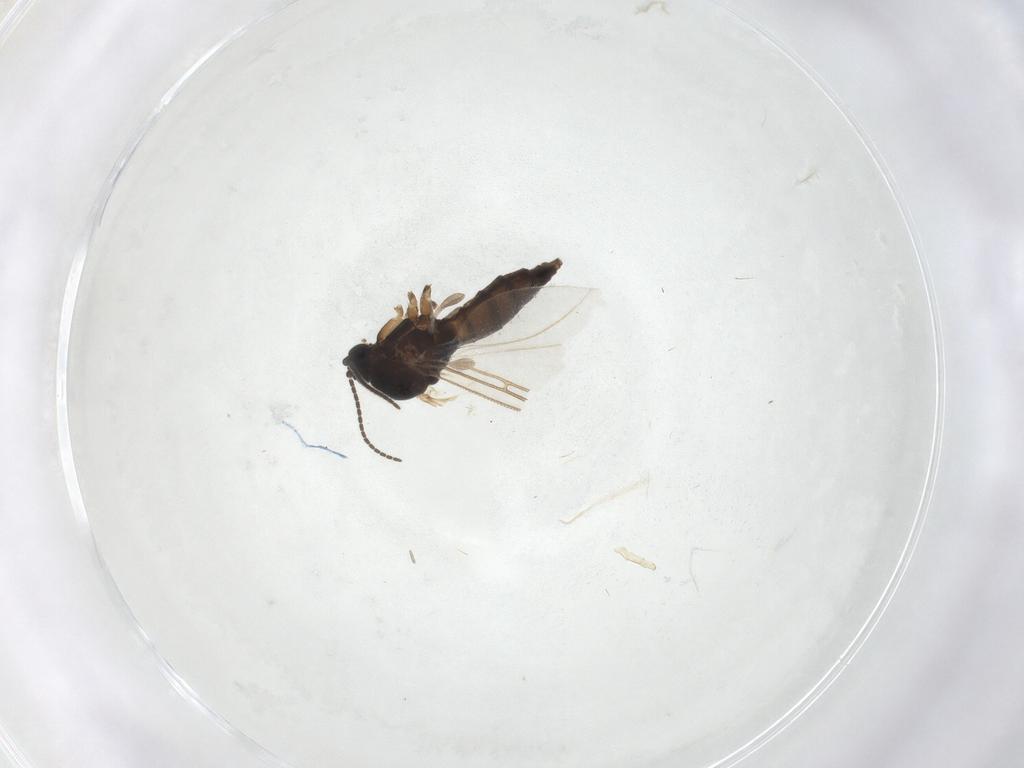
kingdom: Animalia
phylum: Arthropoda
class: Insecta
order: Diptera
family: Sciaridae
